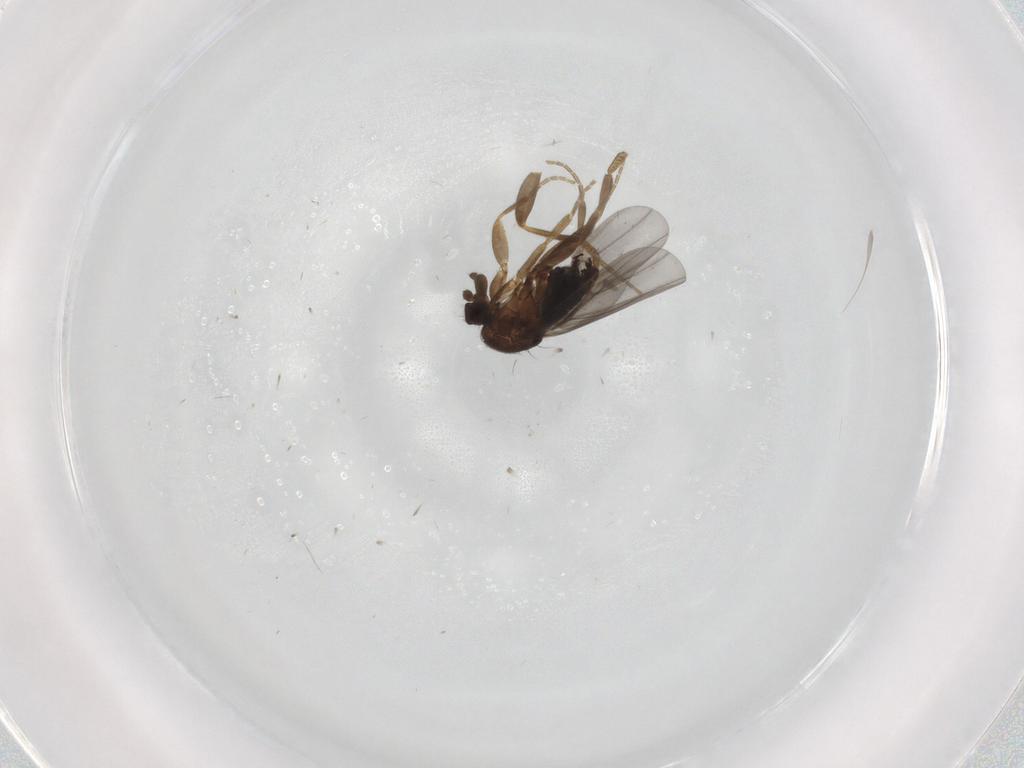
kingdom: Animalia
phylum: Arthropoda
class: Insecta
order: Diptera
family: Phoridae
